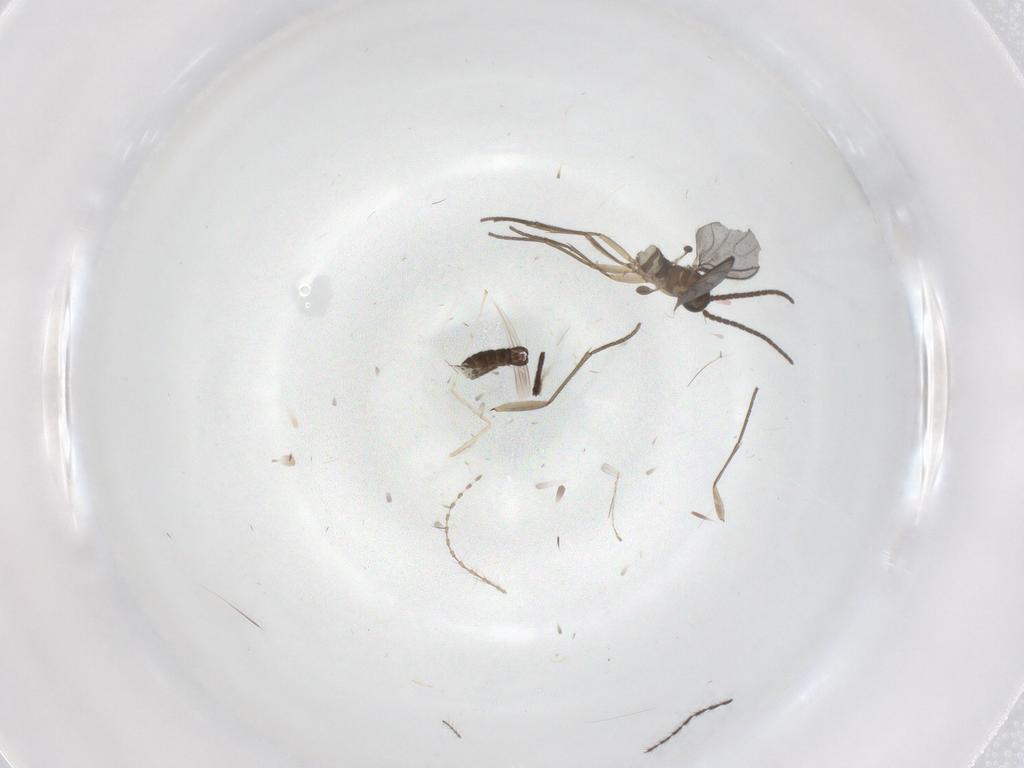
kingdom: Animalia
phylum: Arthropoda
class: Insecta
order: Diptera
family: Sciaridae
